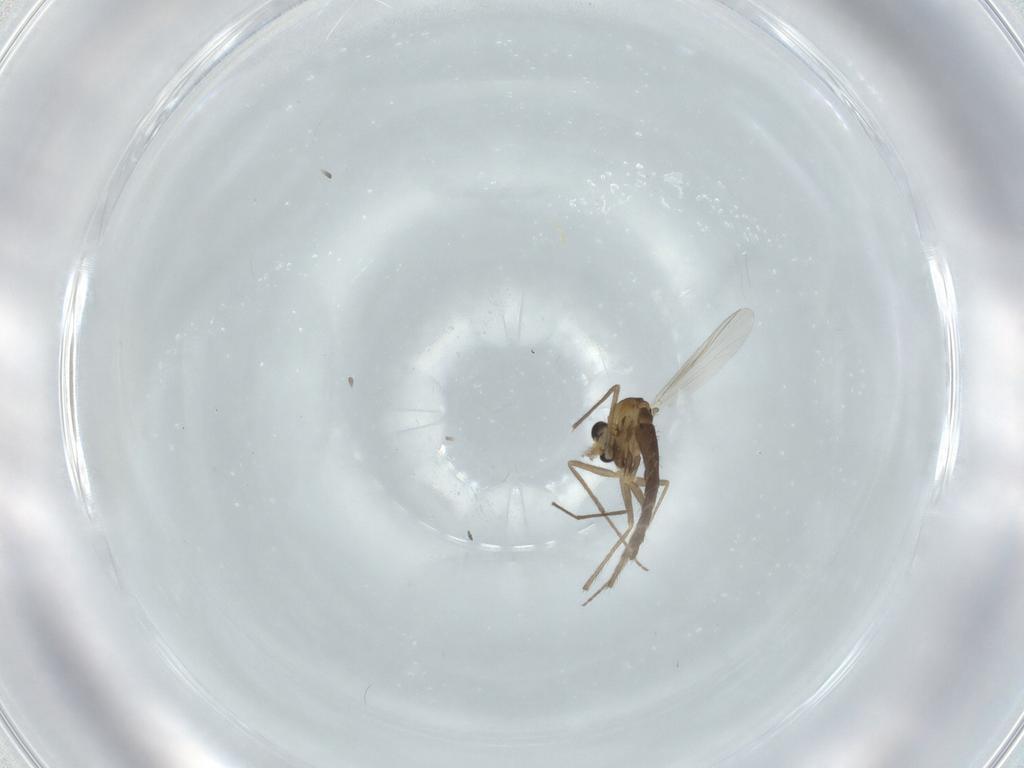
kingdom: Animalia
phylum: Arthropoda
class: Insecta
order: Diptera
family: Chironomidae
